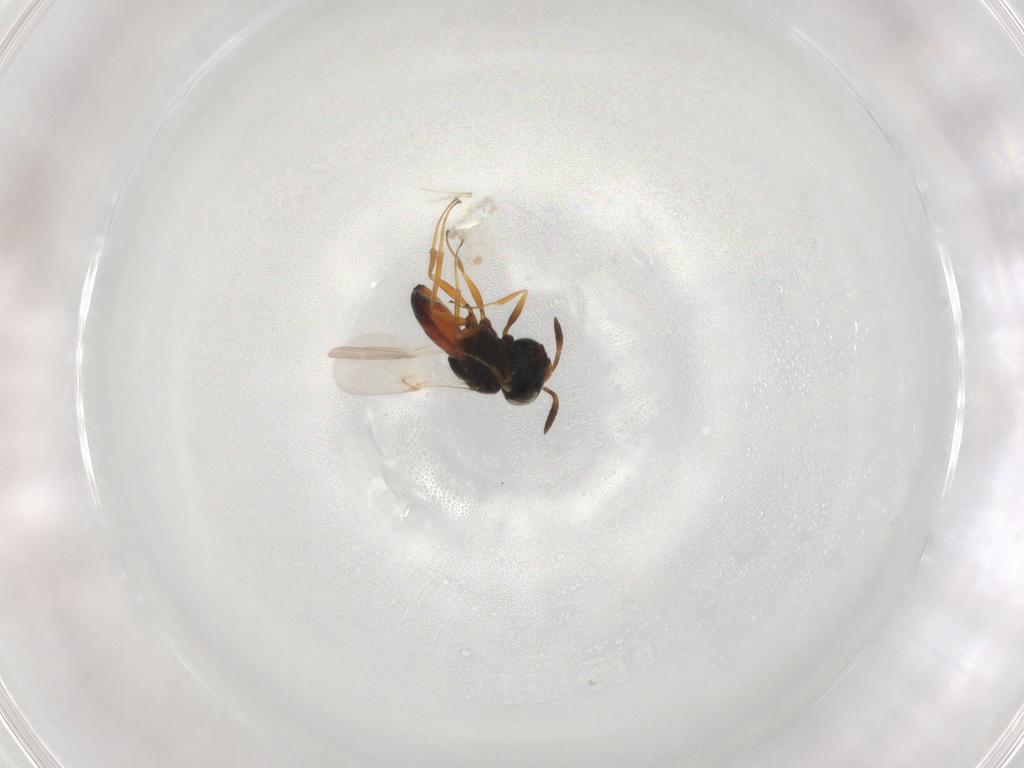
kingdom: Animalia
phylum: Arthropoda
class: Insecta
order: Hymenoptera
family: Scelionidae
